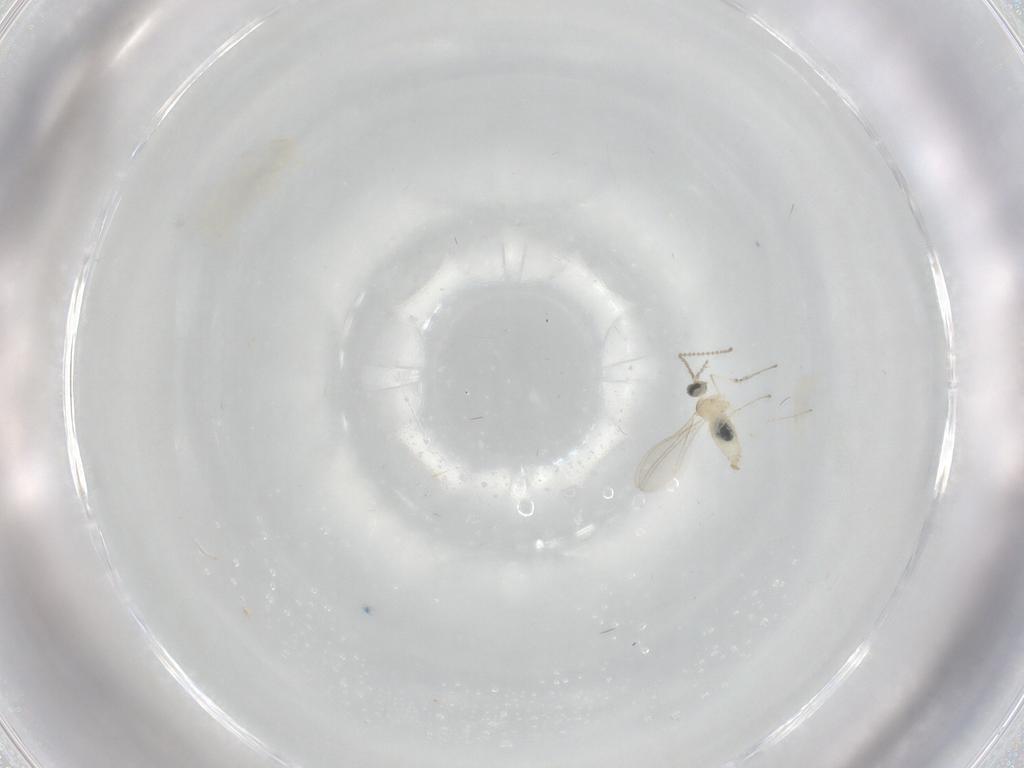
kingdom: Animalia
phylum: Arthropoda
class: Insecta
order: Diptera
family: Cecidomyiidae
